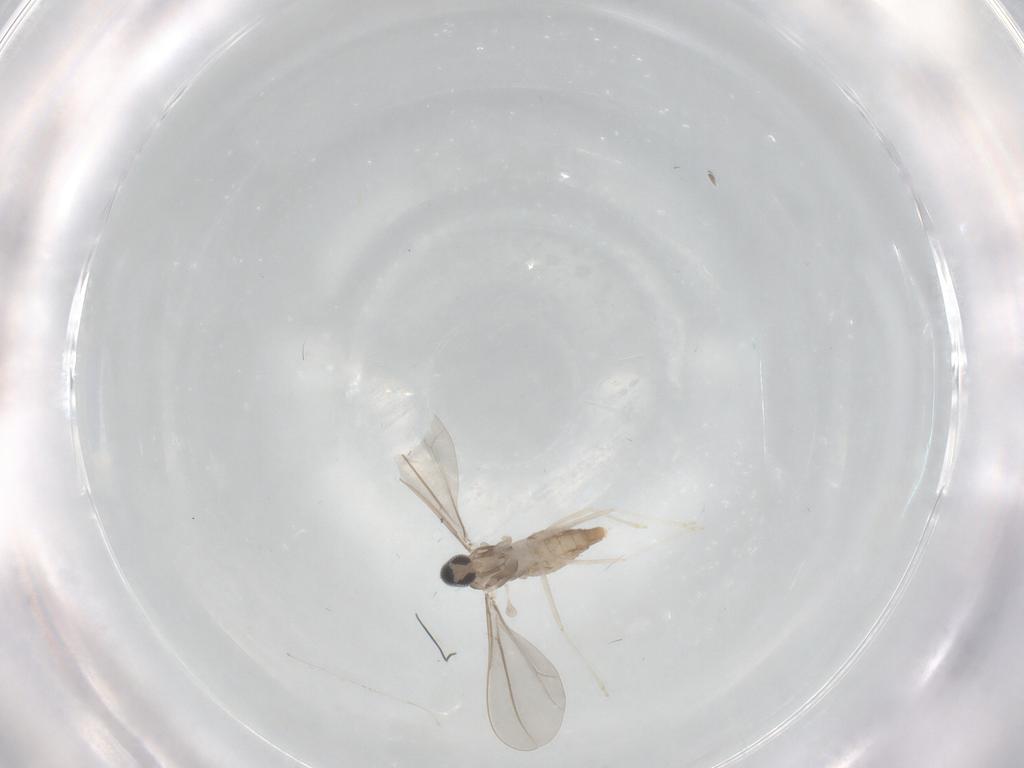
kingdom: Animalia
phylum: Arthropoda
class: Insecta
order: Diptera
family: Cecidomyiidae
